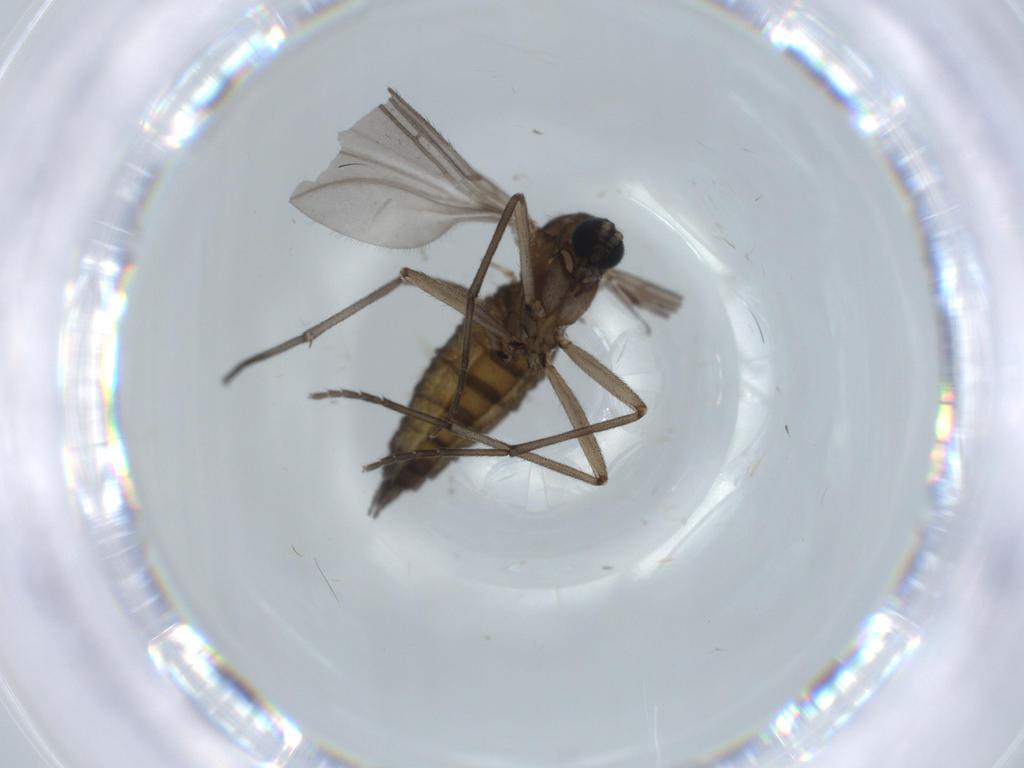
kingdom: Animalia
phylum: Arthropoda
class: Insecta
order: Diptera
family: Sciaridae
